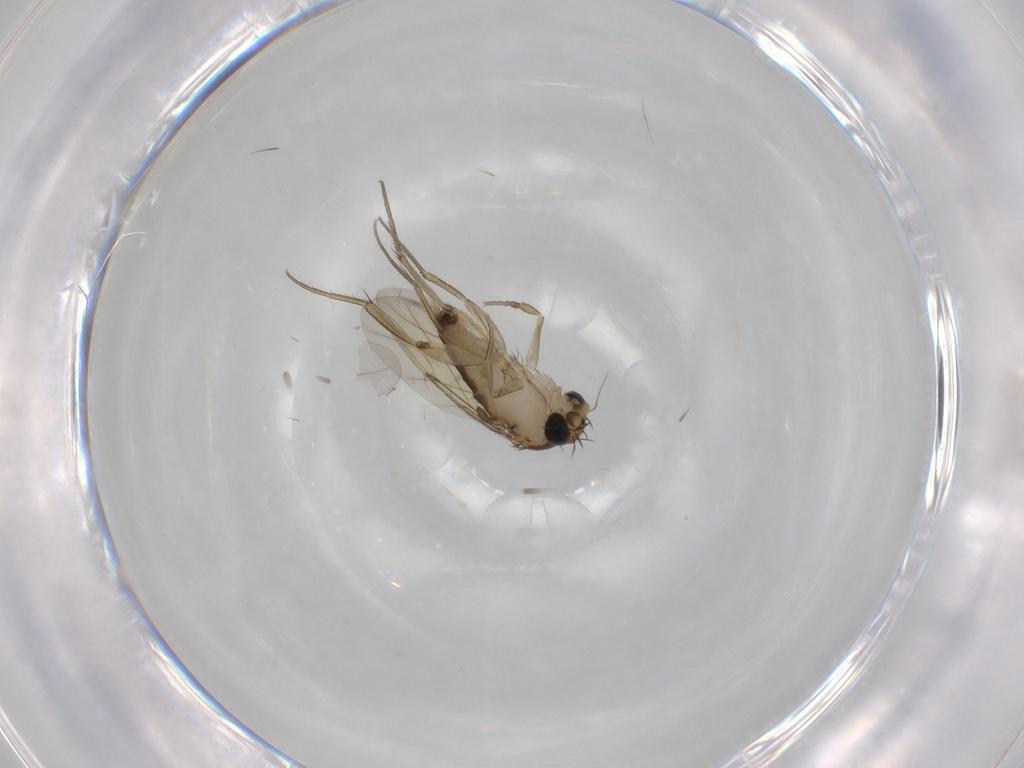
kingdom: Animalia
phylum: Arthropoda
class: Insecta
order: Diptera
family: Phoridae
